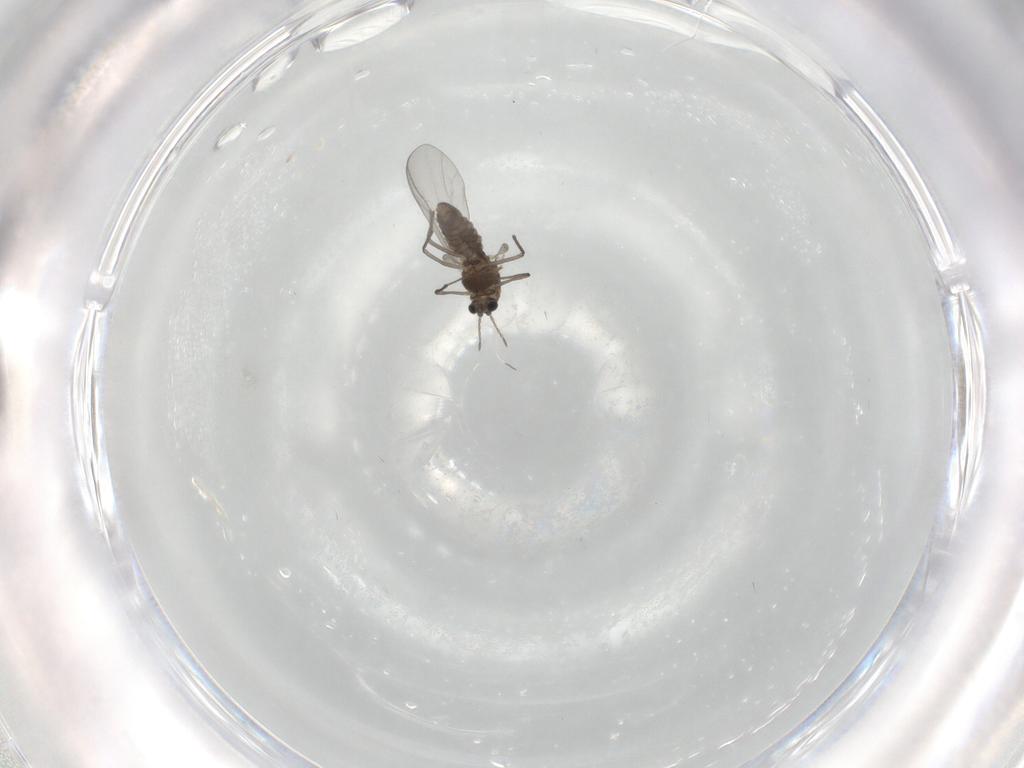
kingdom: Animalia
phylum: Arthropoda
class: Insecta
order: Diptera
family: Chironomidae
